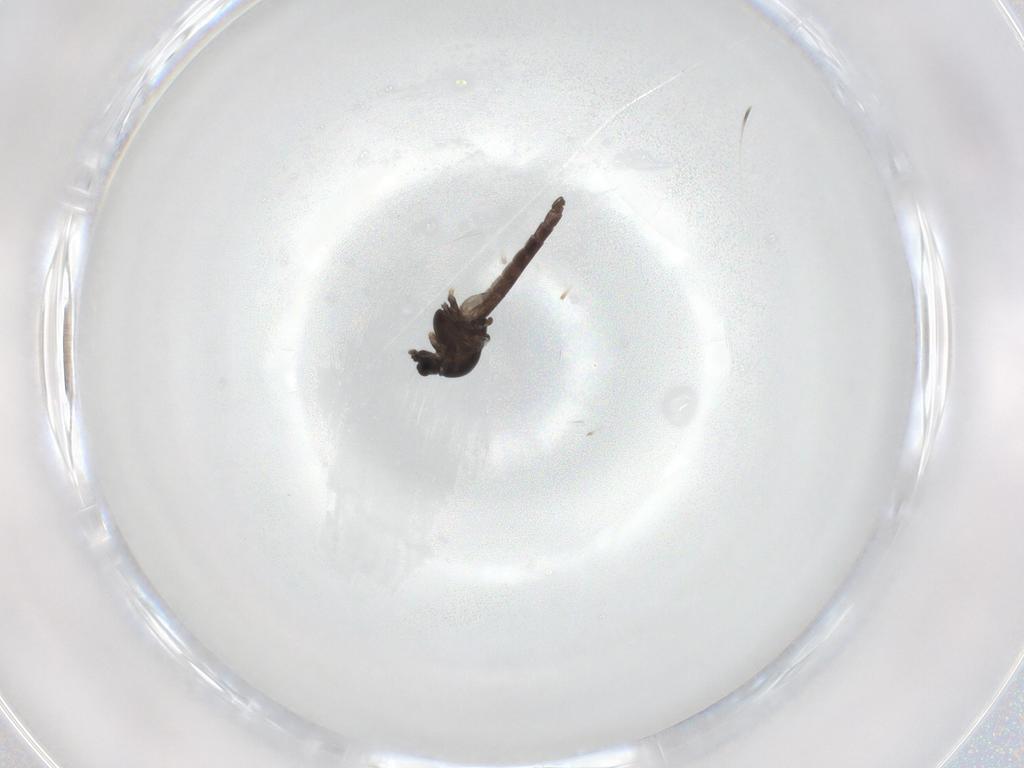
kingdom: Animalia
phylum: Arthropoda
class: Insecta
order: Diptera
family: Chironomidae
